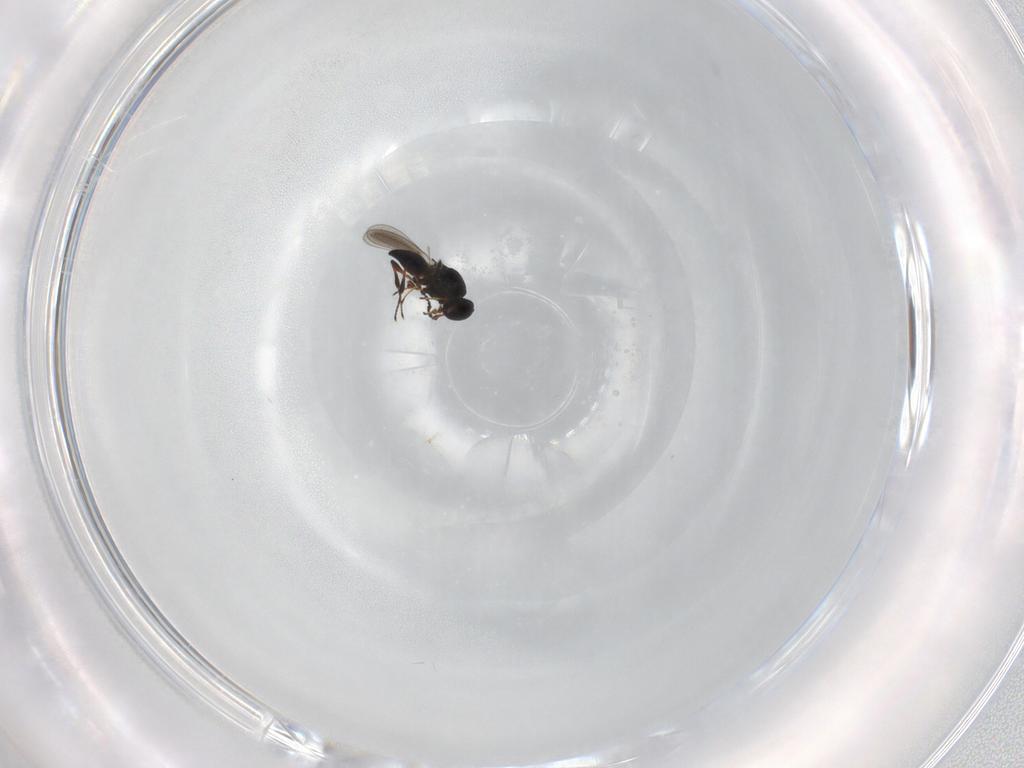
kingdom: Animalia
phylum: Arthropoda
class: Insecta
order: Hymenoptera
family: Platygastridae
